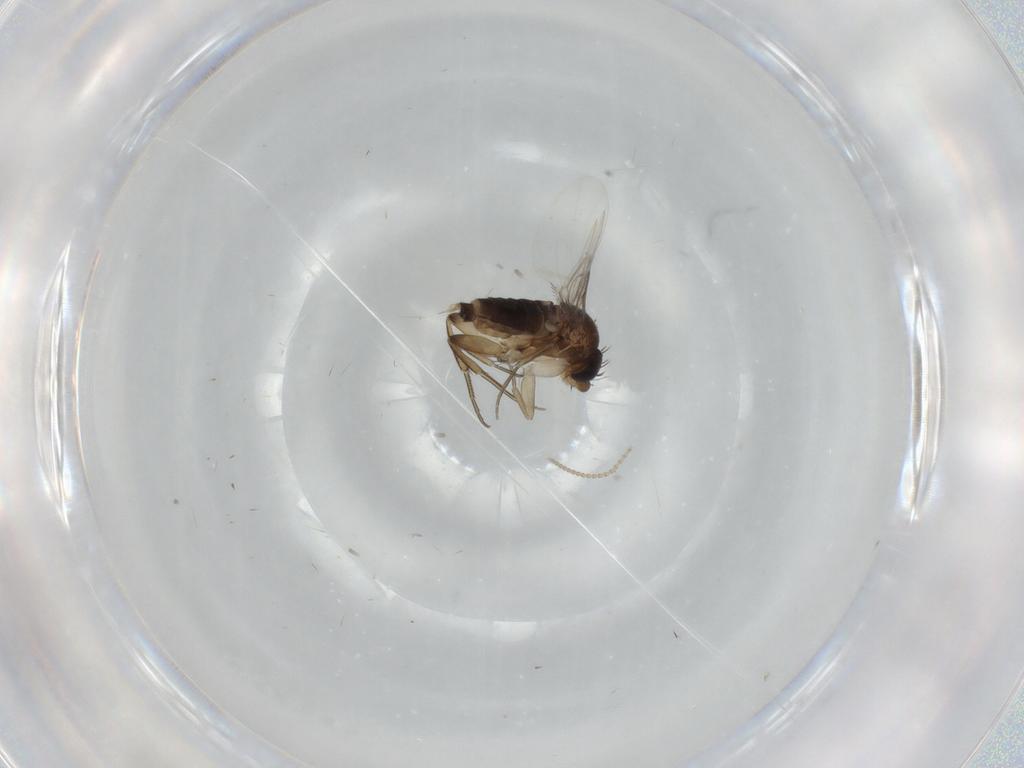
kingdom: Animalia
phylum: Arthropoda
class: Insecta
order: Diptera
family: Phoridae
